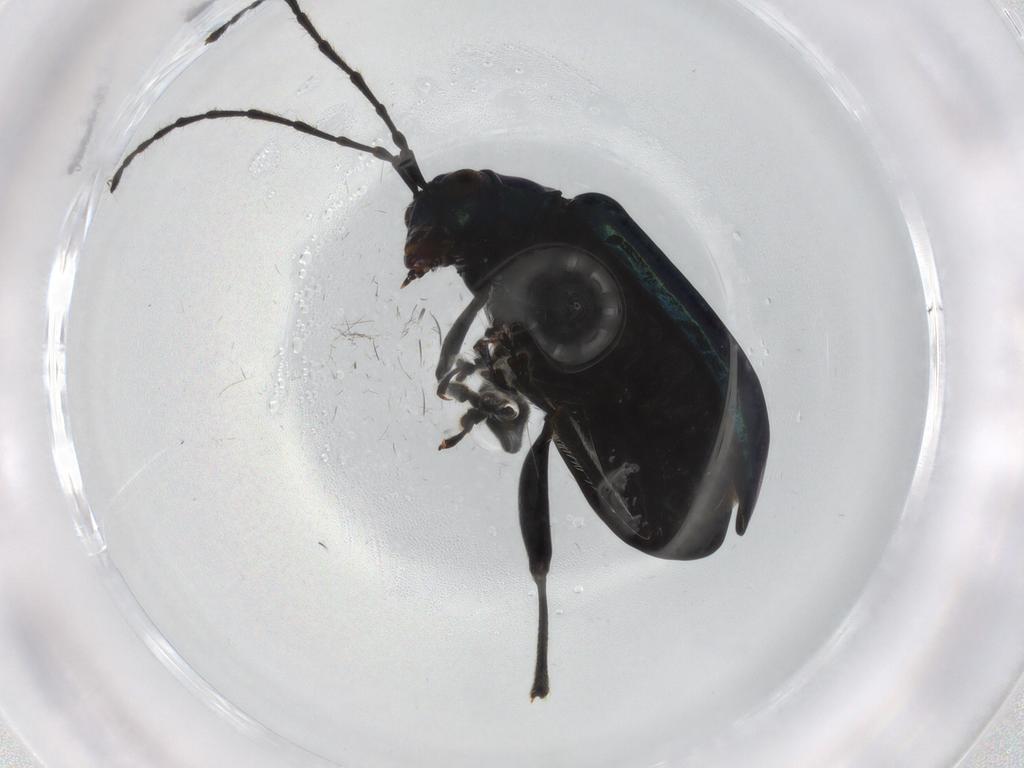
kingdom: Animalia
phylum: Arthropoda
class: Insecta
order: Coleoptera
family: Chrysomelidae
